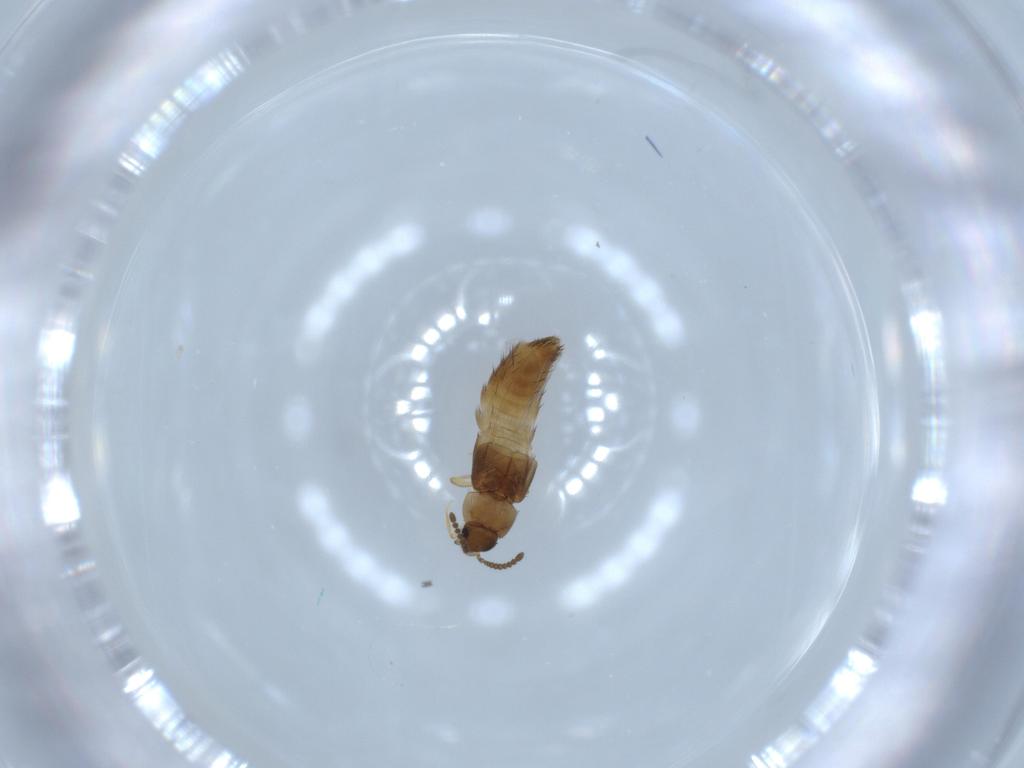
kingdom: Animalia
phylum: Arthropoda
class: Insecta
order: Coleoptera
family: Staphylinidae
